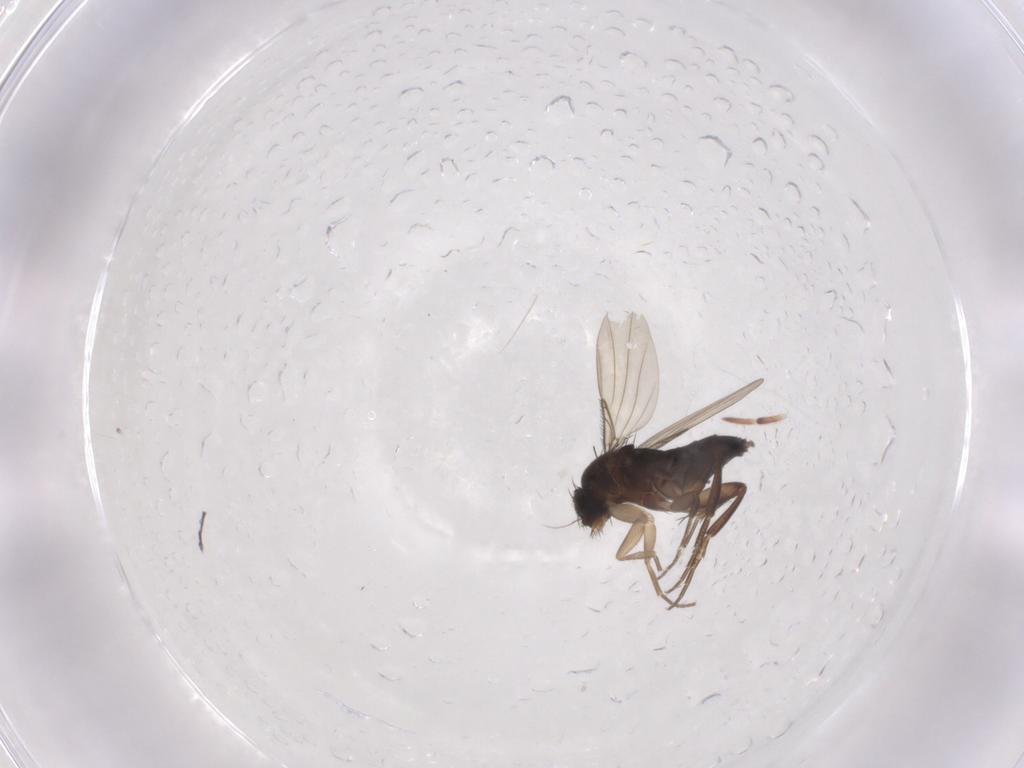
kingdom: Animalia
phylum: Arthropoda
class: Insecta
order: Diptera
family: Phoridae
